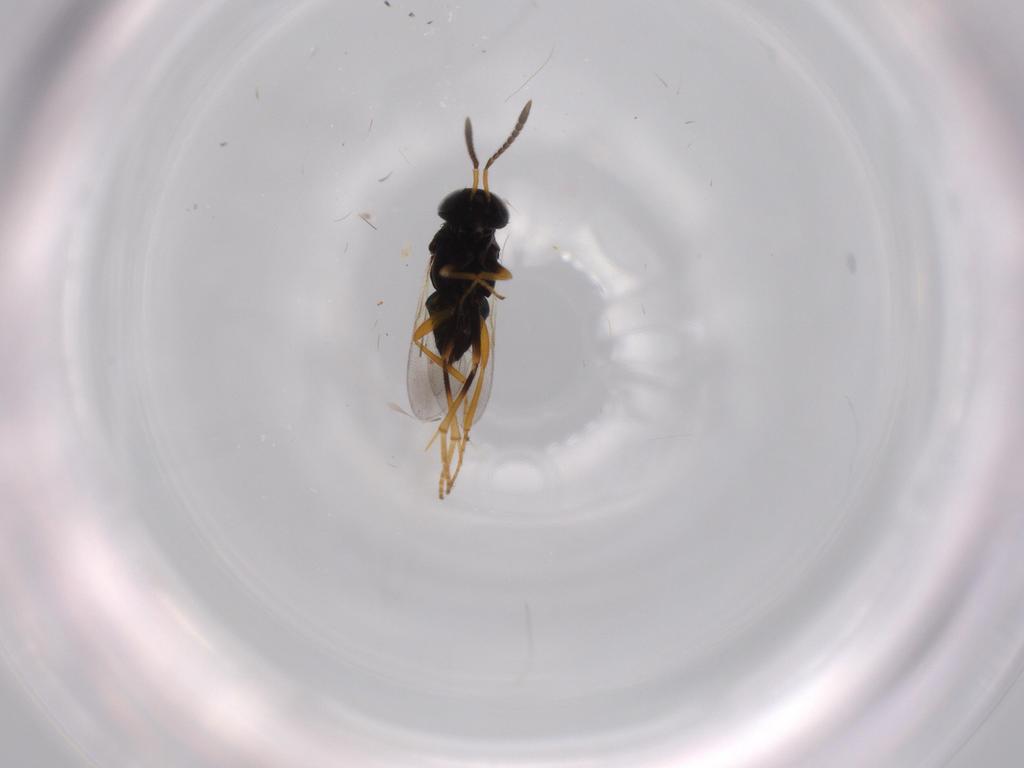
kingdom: Animalia
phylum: Arthropoda
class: Insecta
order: Hymenoptera
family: Encyrtidae
